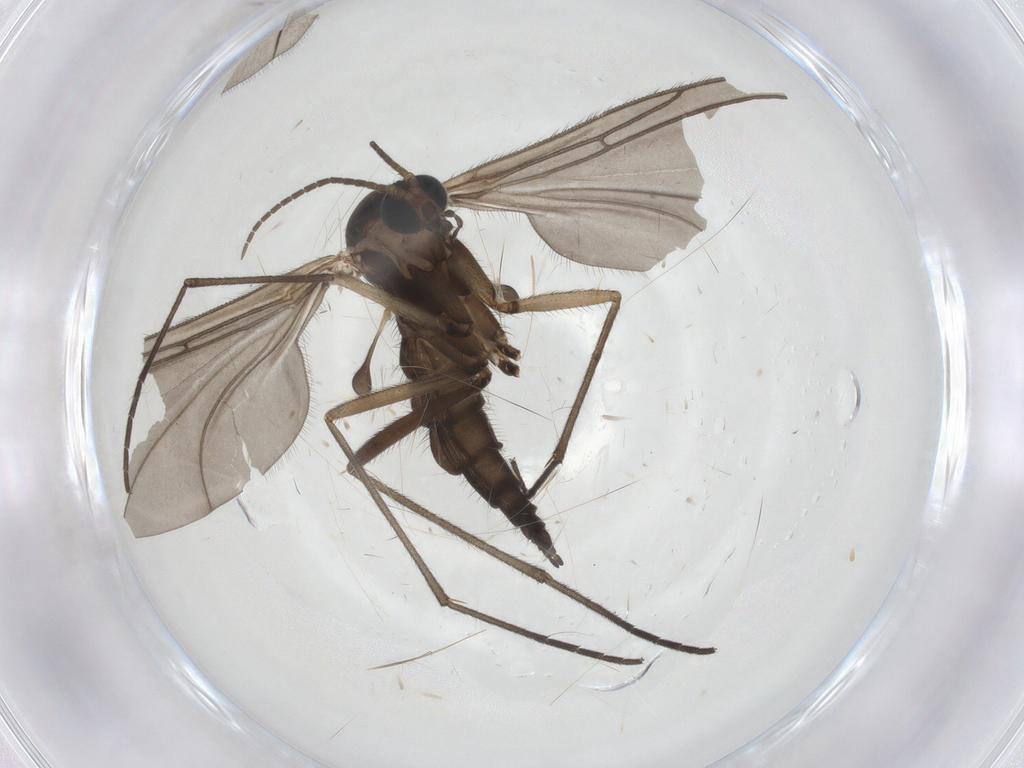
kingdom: Animalia
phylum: Arthropoda
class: Insecta
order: Diptera
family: Sciaridae
